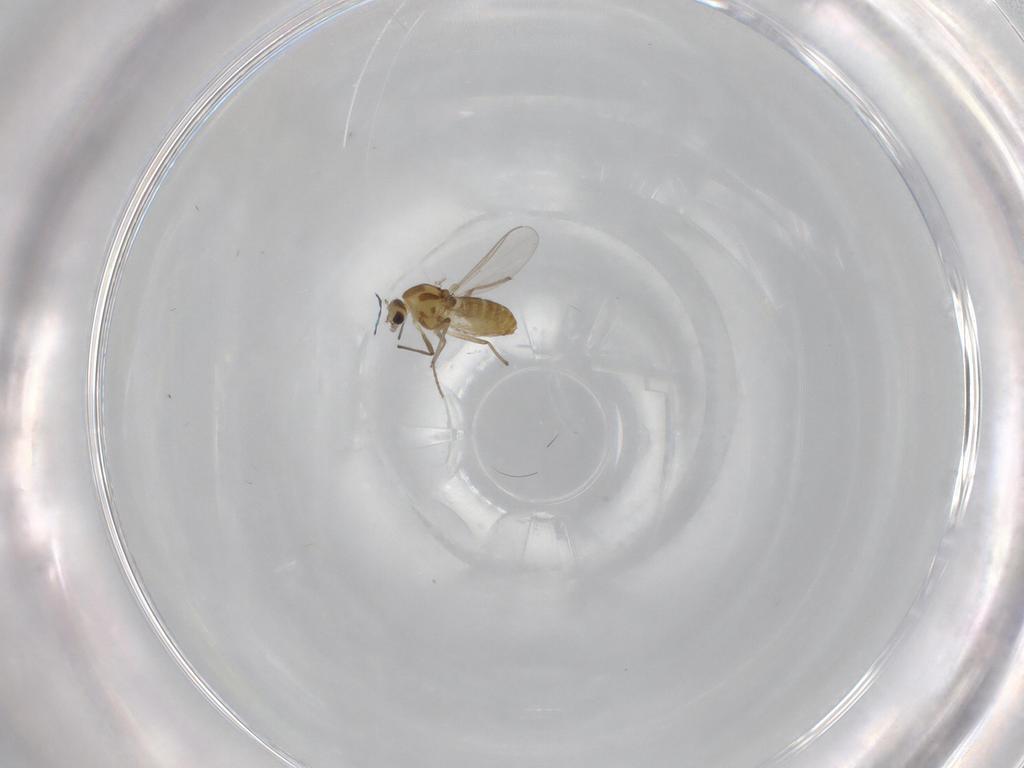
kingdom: Animalia
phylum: Arthropoda
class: Insecta
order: Diptera
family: Chironomidae
